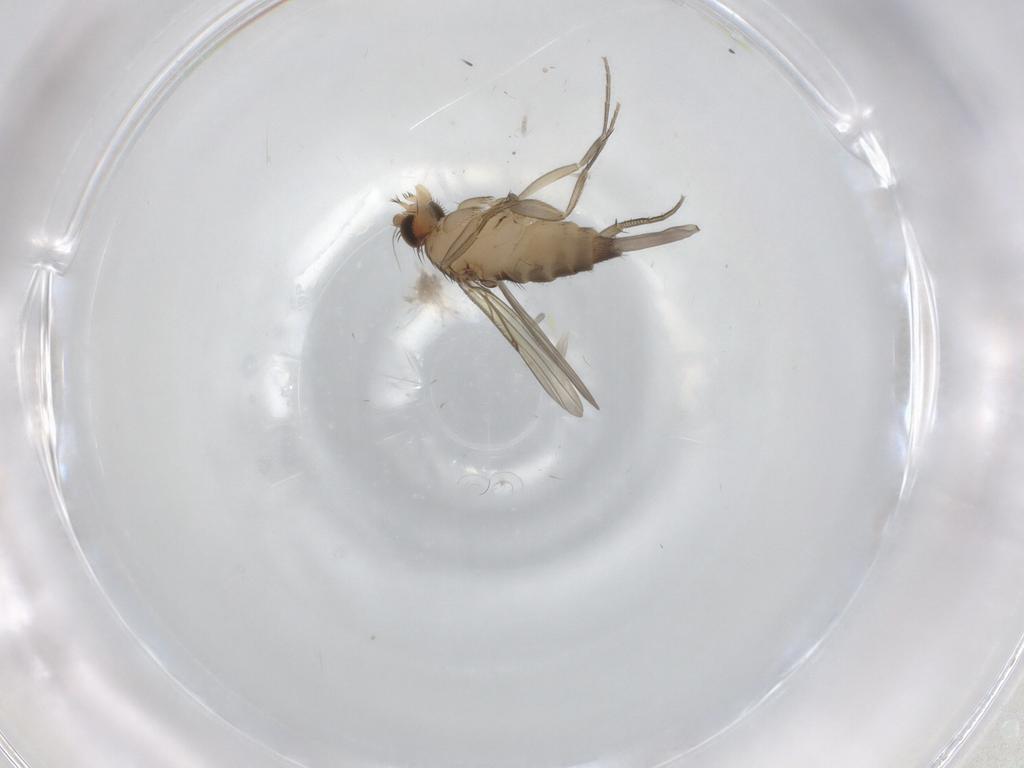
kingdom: Animalia
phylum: Arthropoda
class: Insecta
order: Diptera
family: Phoridae
